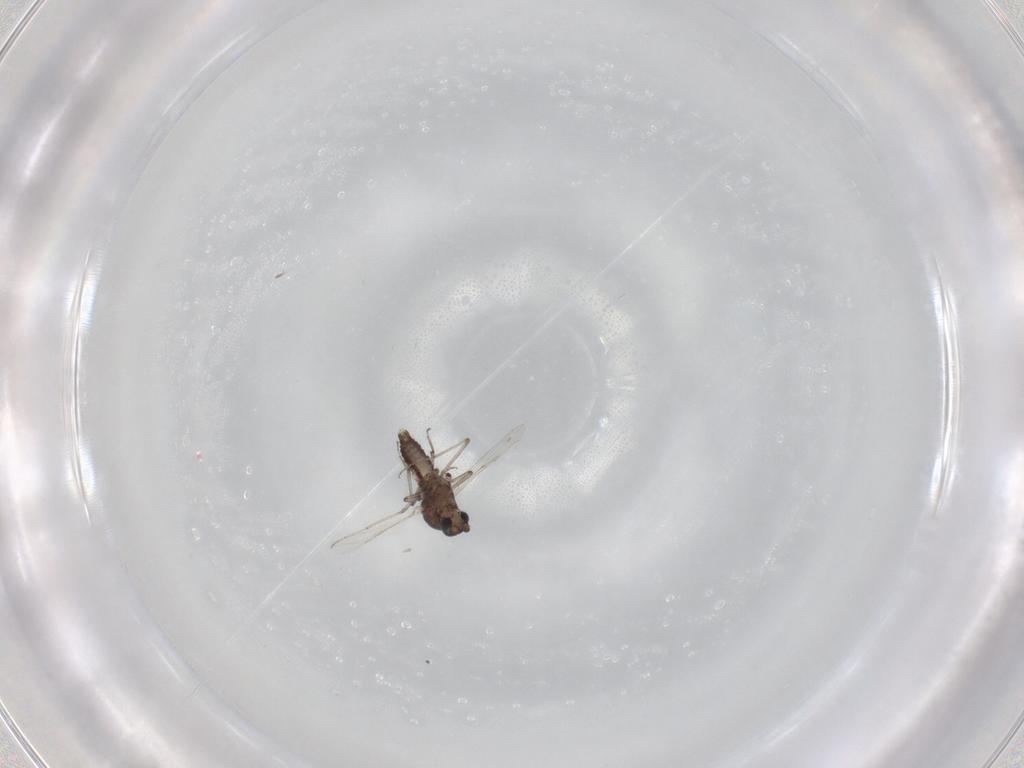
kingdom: Animalia
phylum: Arthropoda
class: Insecta
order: Diptera
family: Ceratopogonidae
